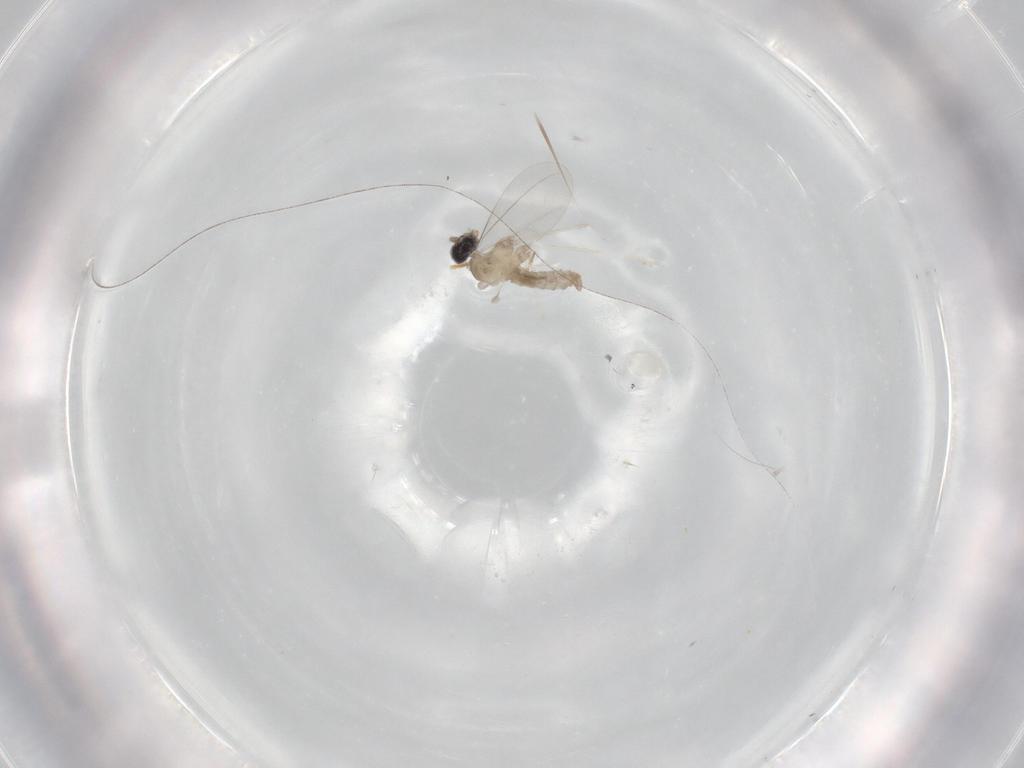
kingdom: Animalia
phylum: Arthropoda
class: Insecta
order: Diptera
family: Cecidomyiidae
